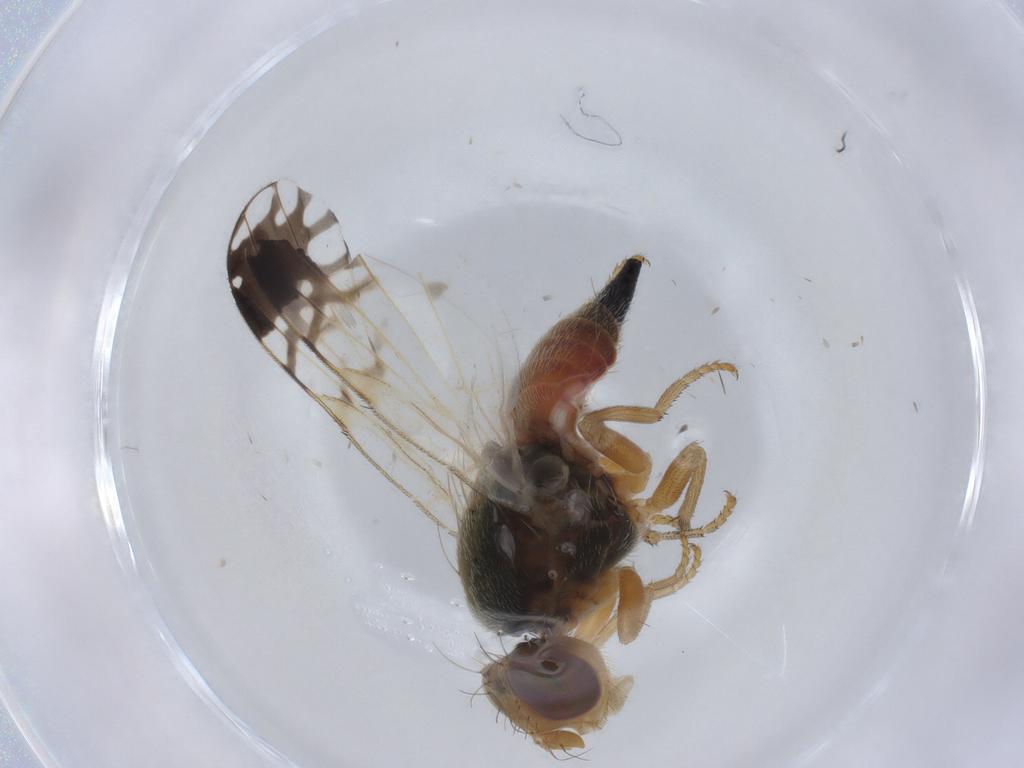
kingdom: Animalia
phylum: Arthropoda
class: Insecta
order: Diptera
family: Tephritidae
